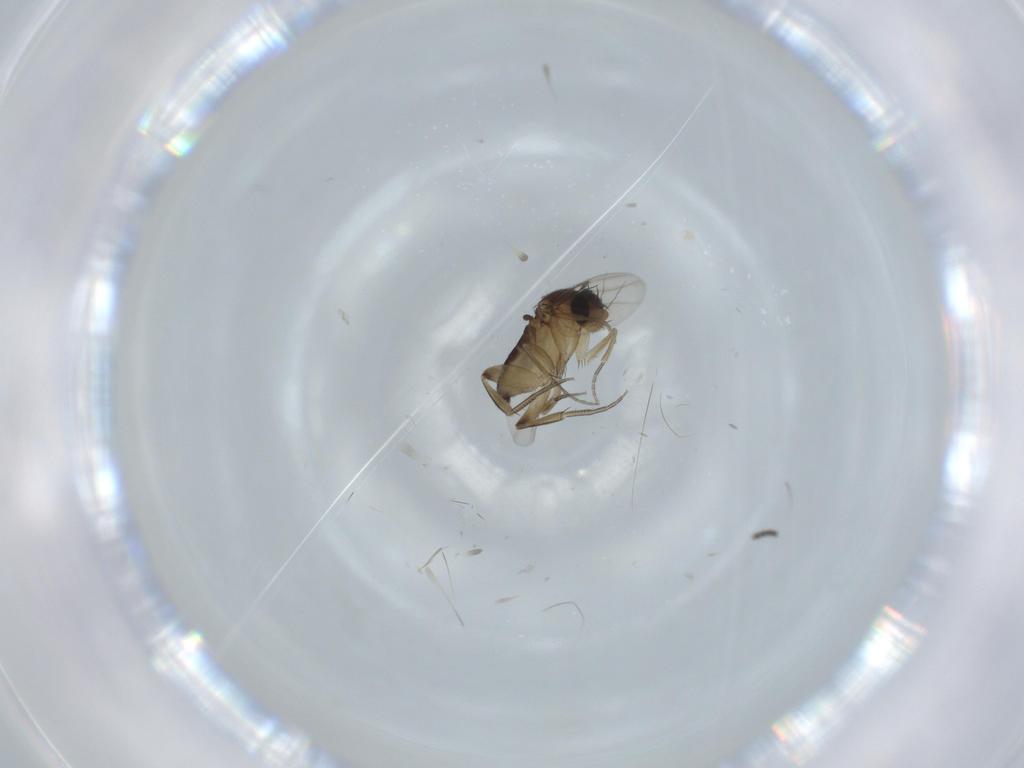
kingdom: Animalia
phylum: Arthropoda
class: Insecta
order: Diptera
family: Phoridae
